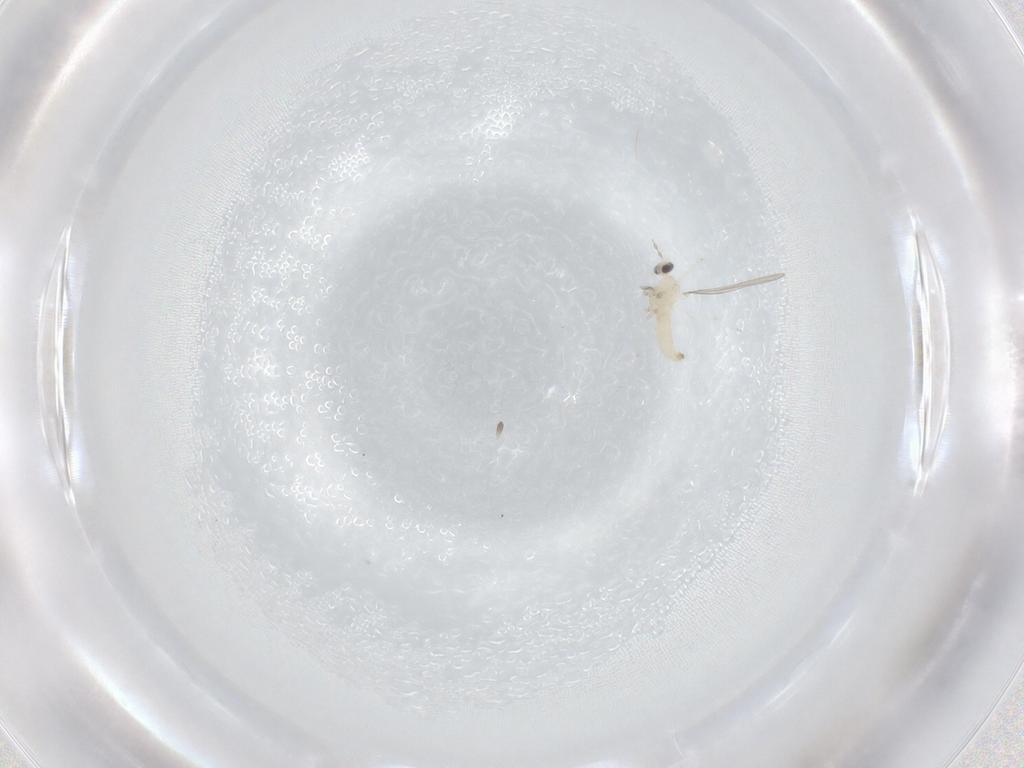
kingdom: Animalia
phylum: Arthropoda
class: Insecta
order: Diptera
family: Cecidomyiidae
